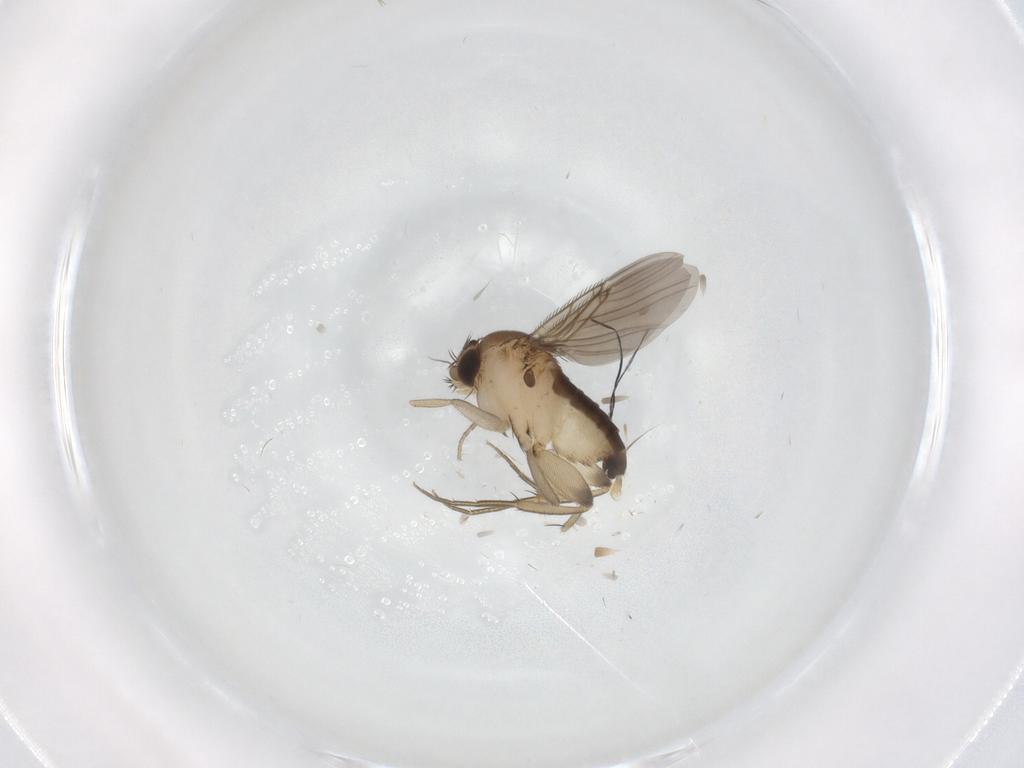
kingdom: Animalia
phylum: Arthropoda
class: Insecta
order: Diptera
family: Phoridae
